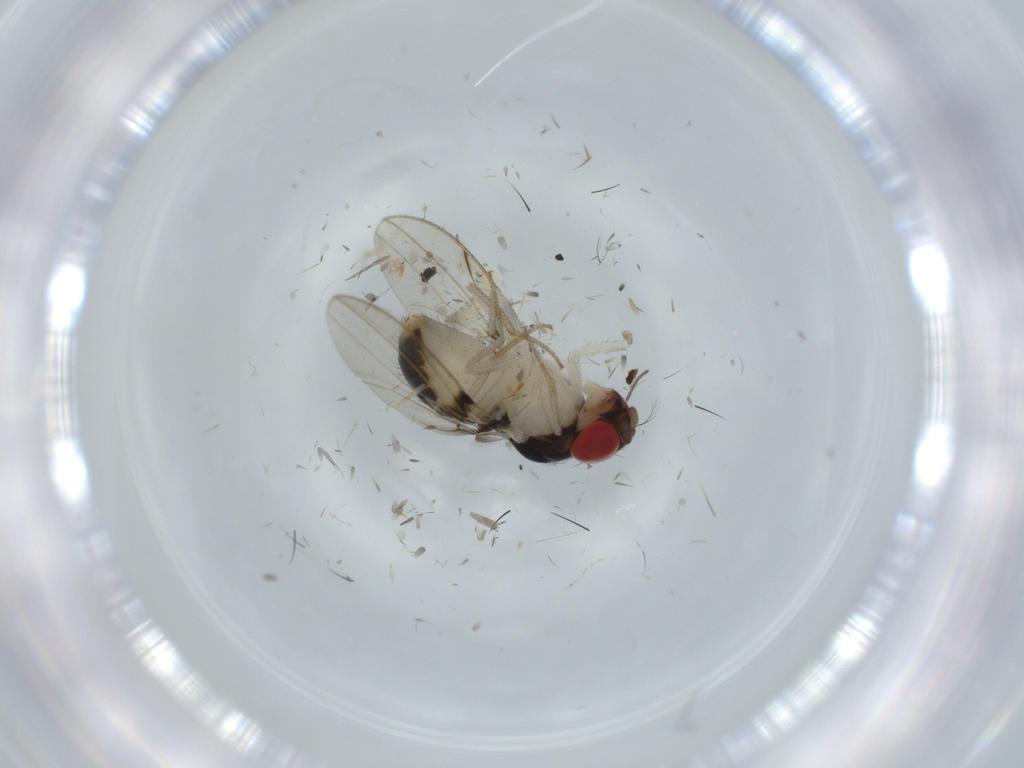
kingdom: Animalia
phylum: Arthropoda
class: Insecta
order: Diptera
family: Drosophilidae
